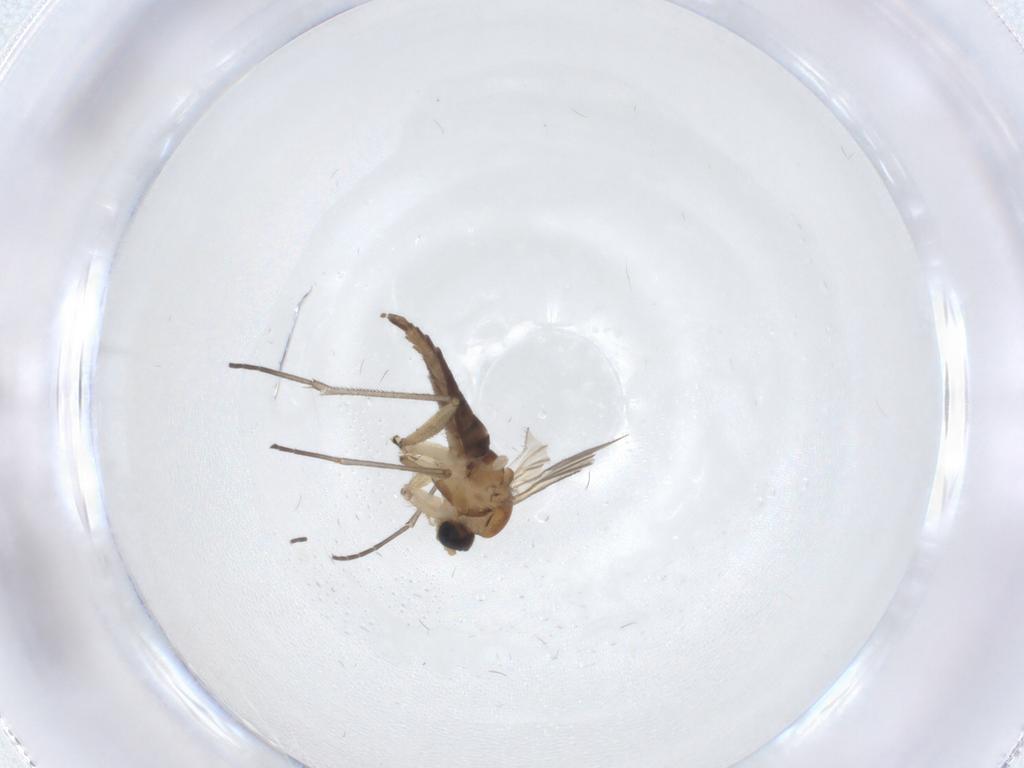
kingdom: Animalia
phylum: Arthropoda
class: Insecta
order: Diptera
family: Sciaridae
